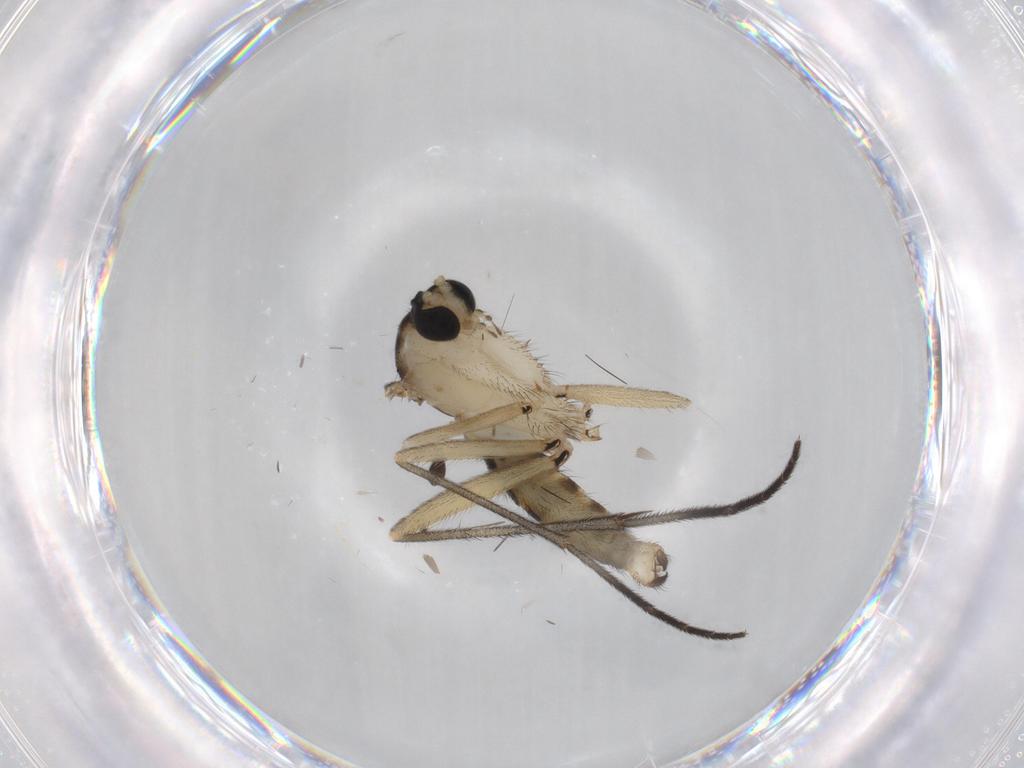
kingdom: Animalia
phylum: Arthropoda
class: Insecta
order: Diptera
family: Sciaridae
